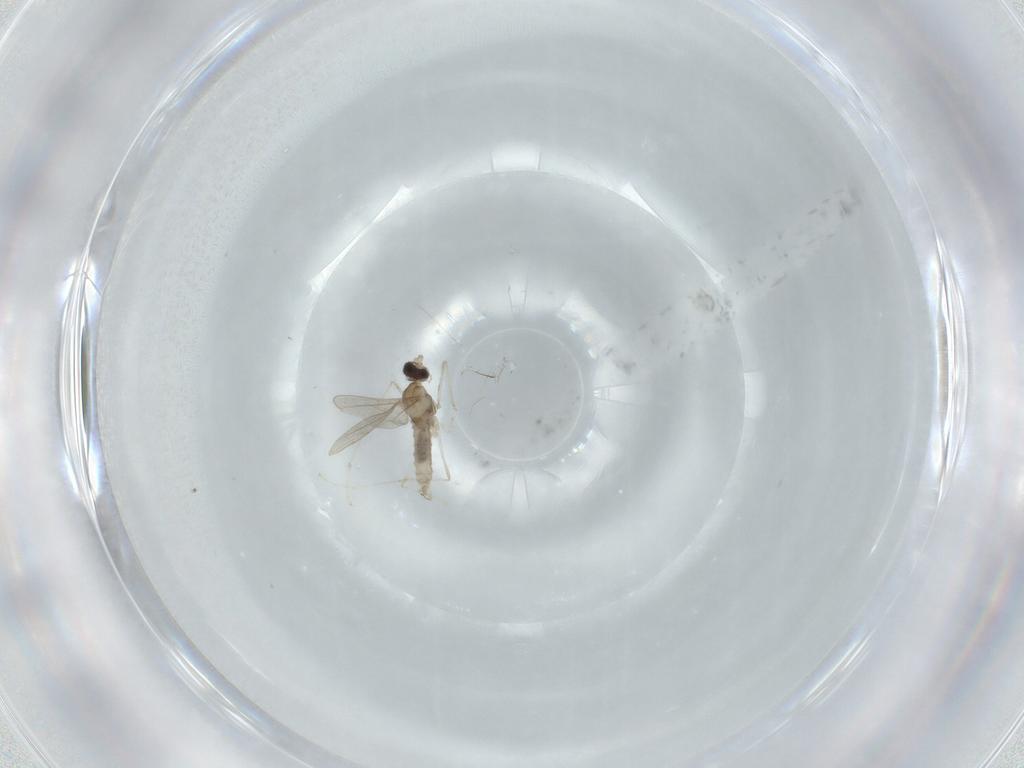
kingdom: Animalia
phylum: Arthropoda
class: Insecta
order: Diptera
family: Cecidomyiidae
